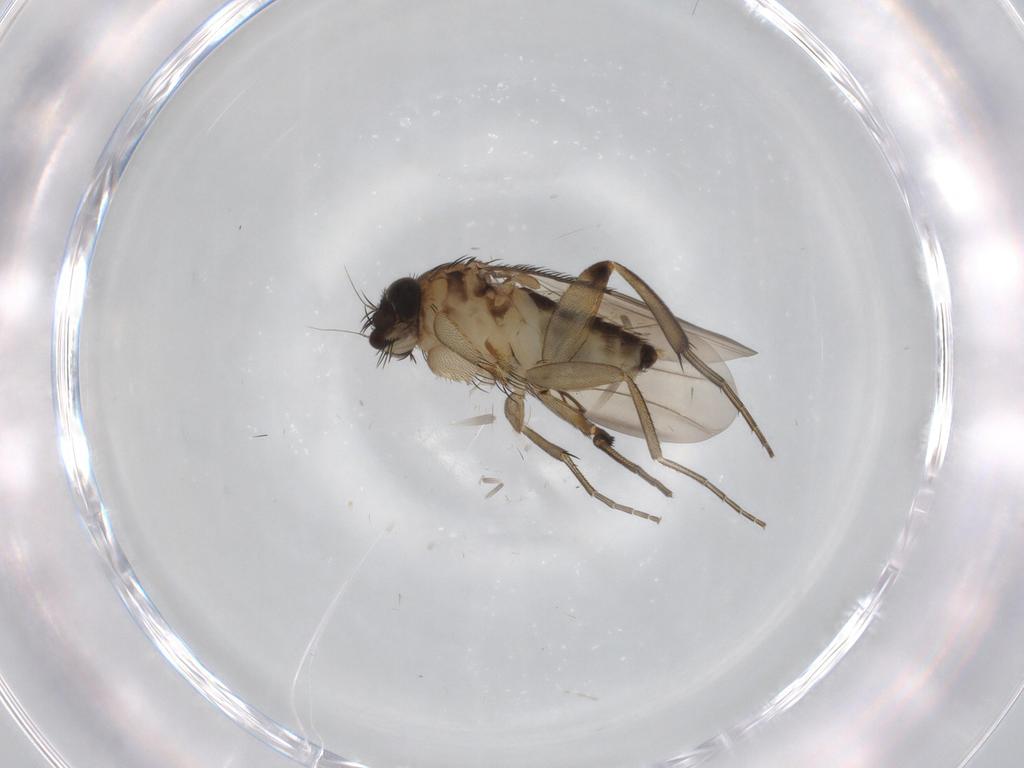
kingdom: Animalia
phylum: Arthropoda
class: Insecta
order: Diptera
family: Phoridae
